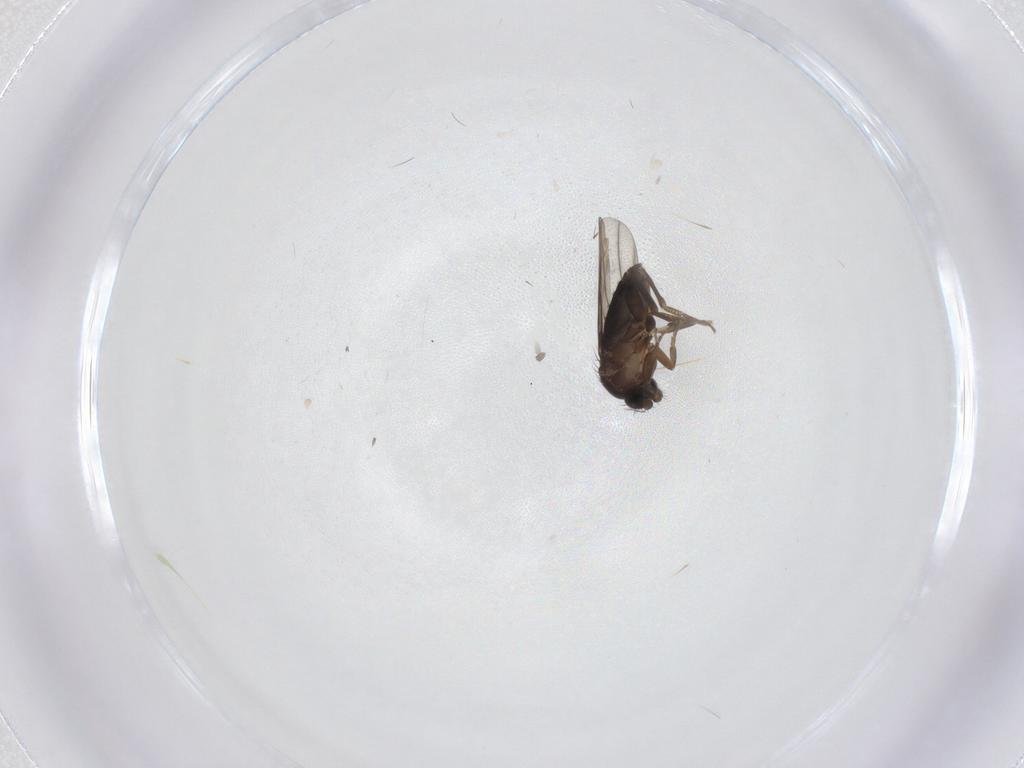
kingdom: Animalia
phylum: Arthropoda
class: Insecta
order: Diptera
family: Cecidomyiidae
